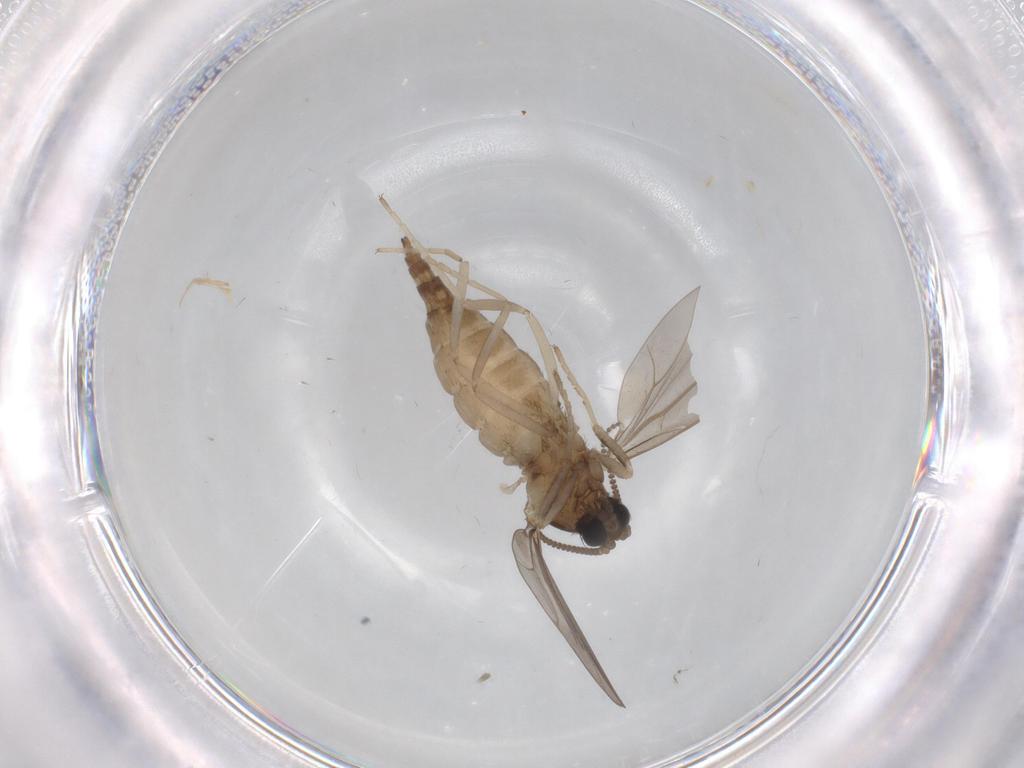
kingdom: Animalia
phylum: Arthropoda
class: Insecta
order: Diptera
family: Cecidomyiidae
